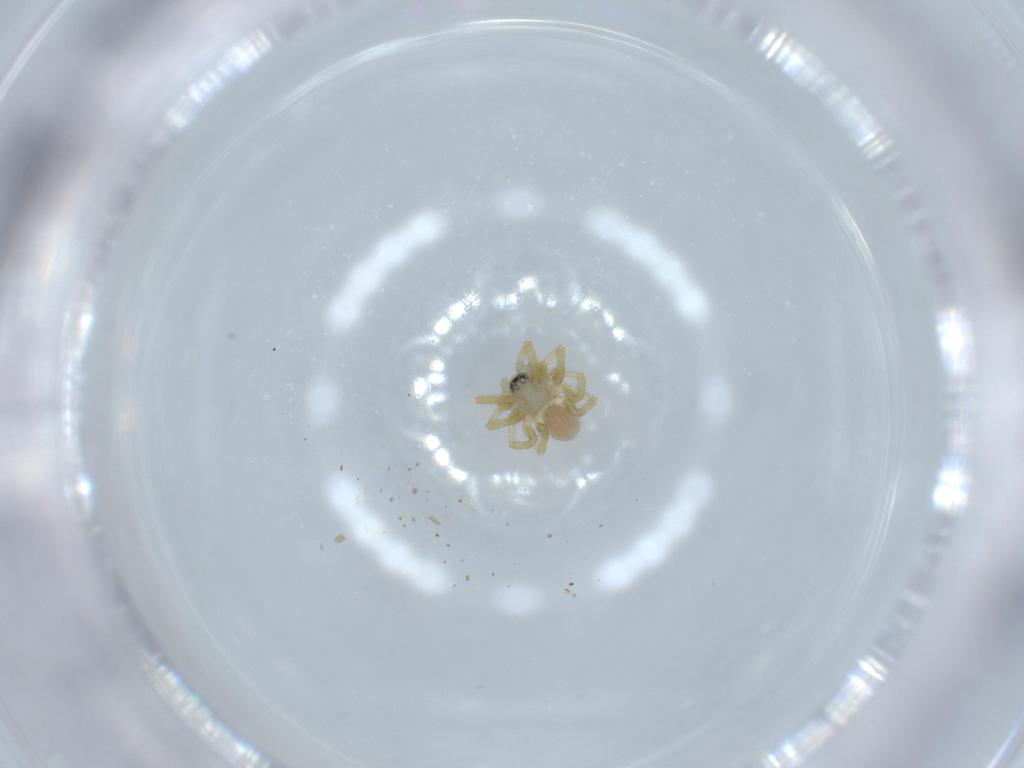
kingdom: Animalia
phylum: Arthropoda
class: Arachnida
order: Araneae
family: Linyphiidae
